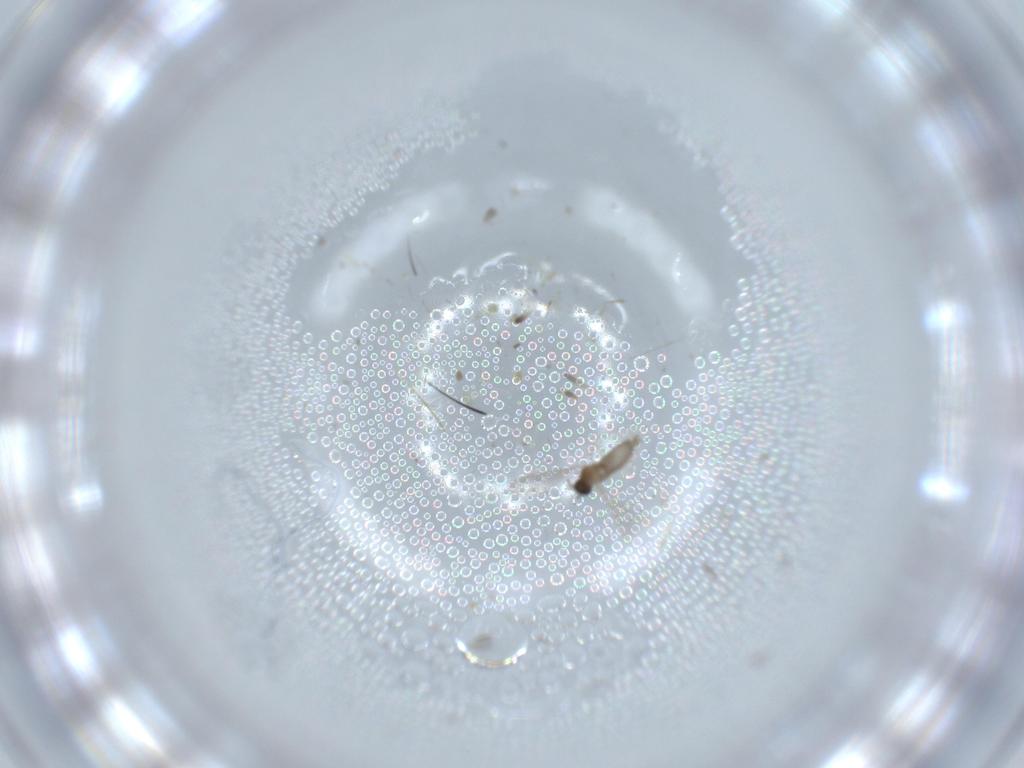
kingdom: Animalia
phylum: Arthropoda
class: Insecta
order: Diptera
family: Cecidomyiidae
